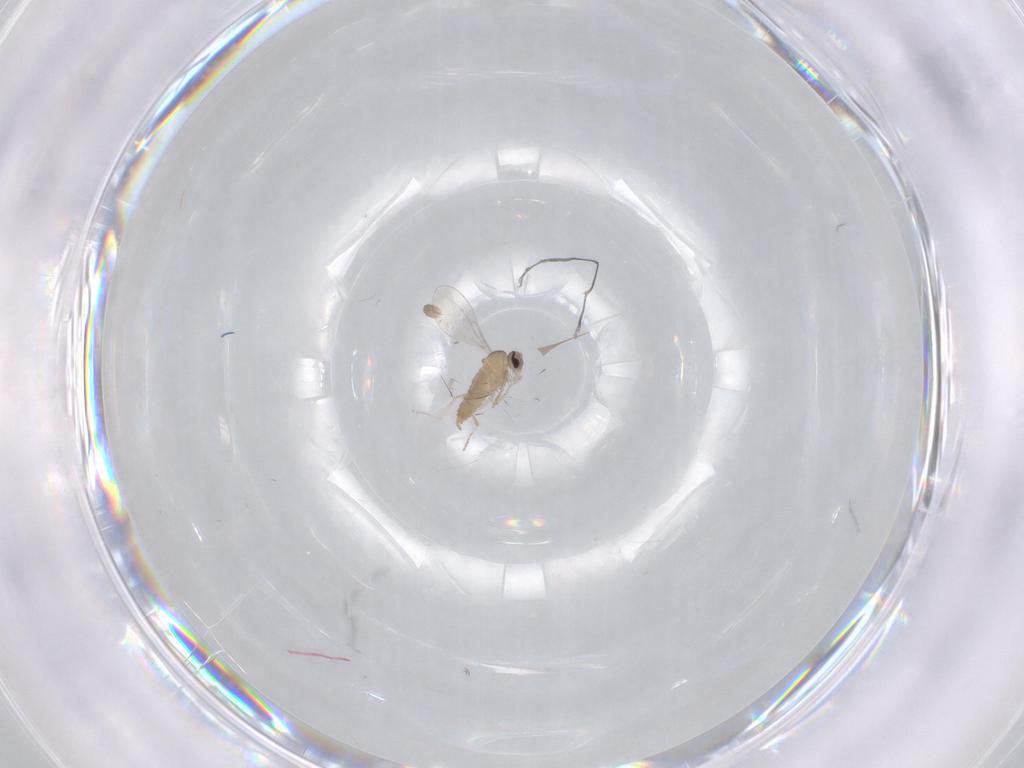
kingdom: Animalia
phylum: Arthropoda
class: Insecta
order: Diptera
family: Cecidomyiidae
